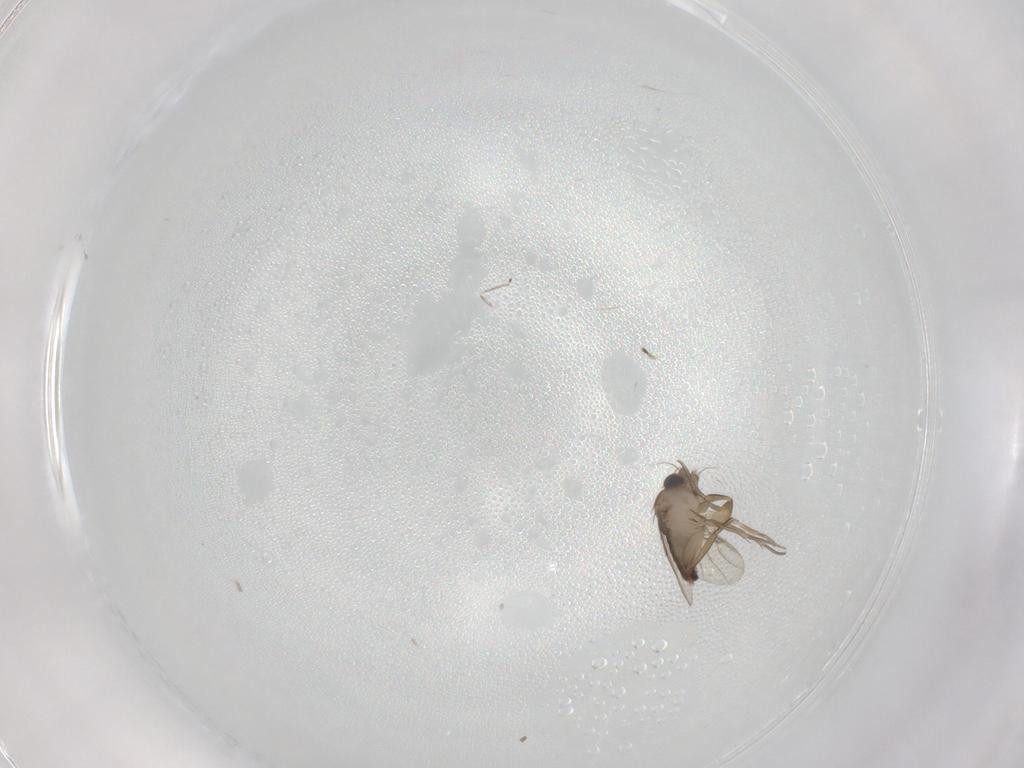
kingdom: Animalia
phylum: Arthropoda
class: Insecta
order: Diptera
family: Phoridae
